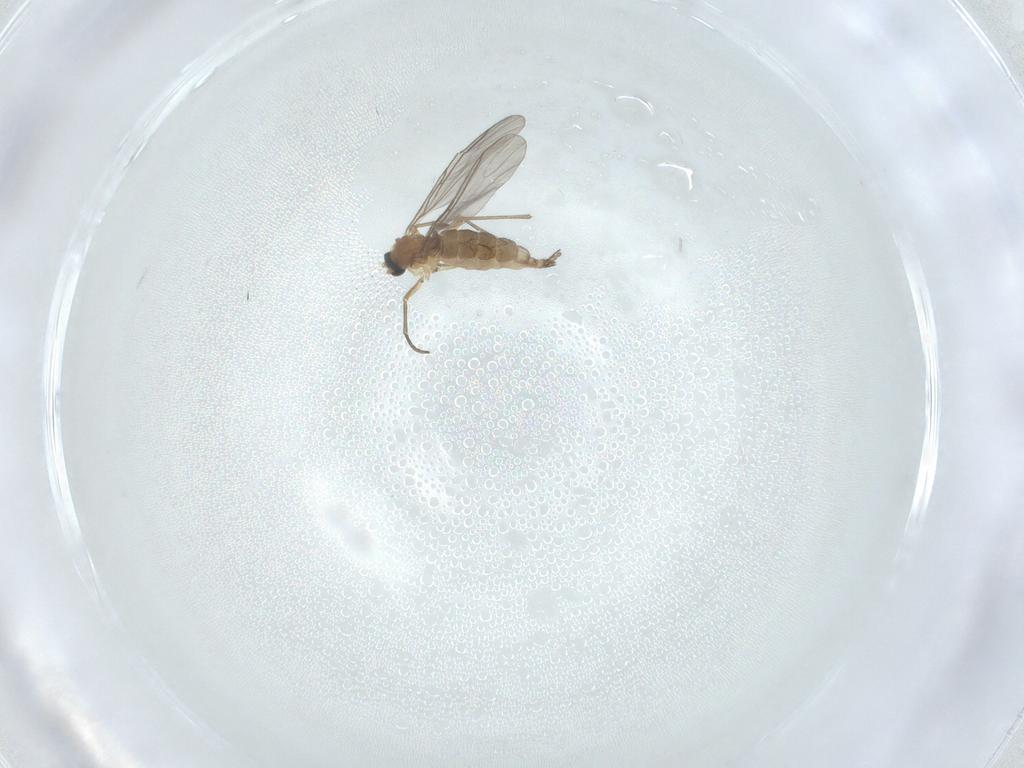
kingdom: Animalia
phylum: Arthropoda
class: Insecta
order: Diptera
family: Sciaridae
